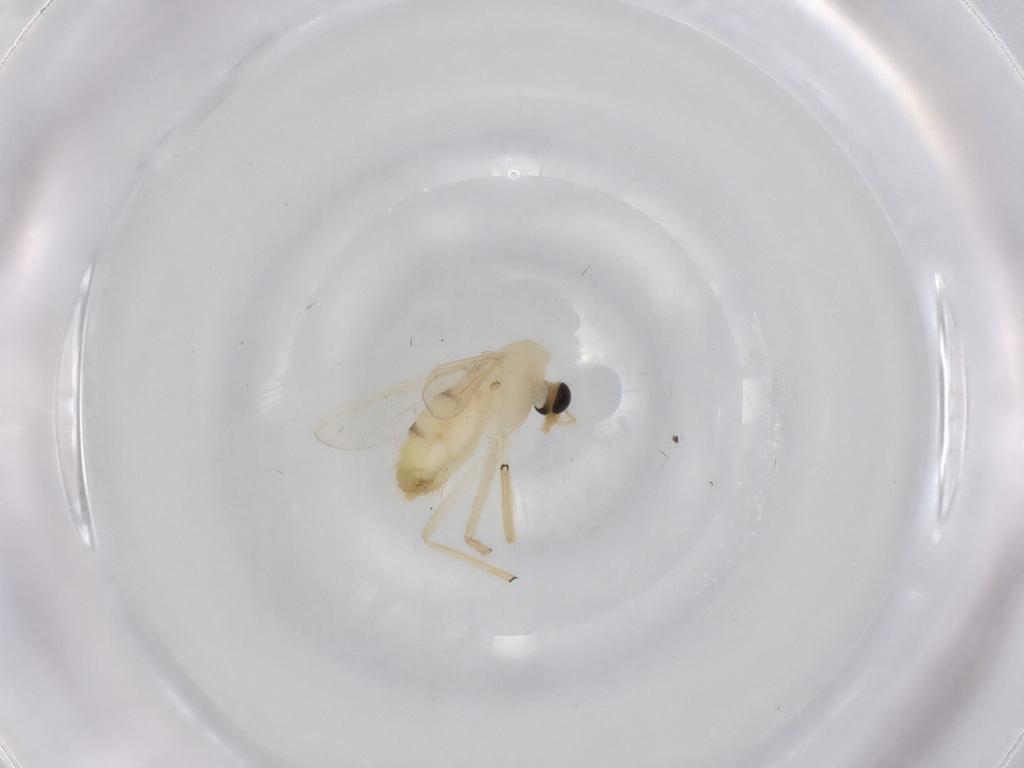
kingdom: Animalia
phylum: Arthropoda
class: Insecta
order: Diptera
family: Chironomidae
